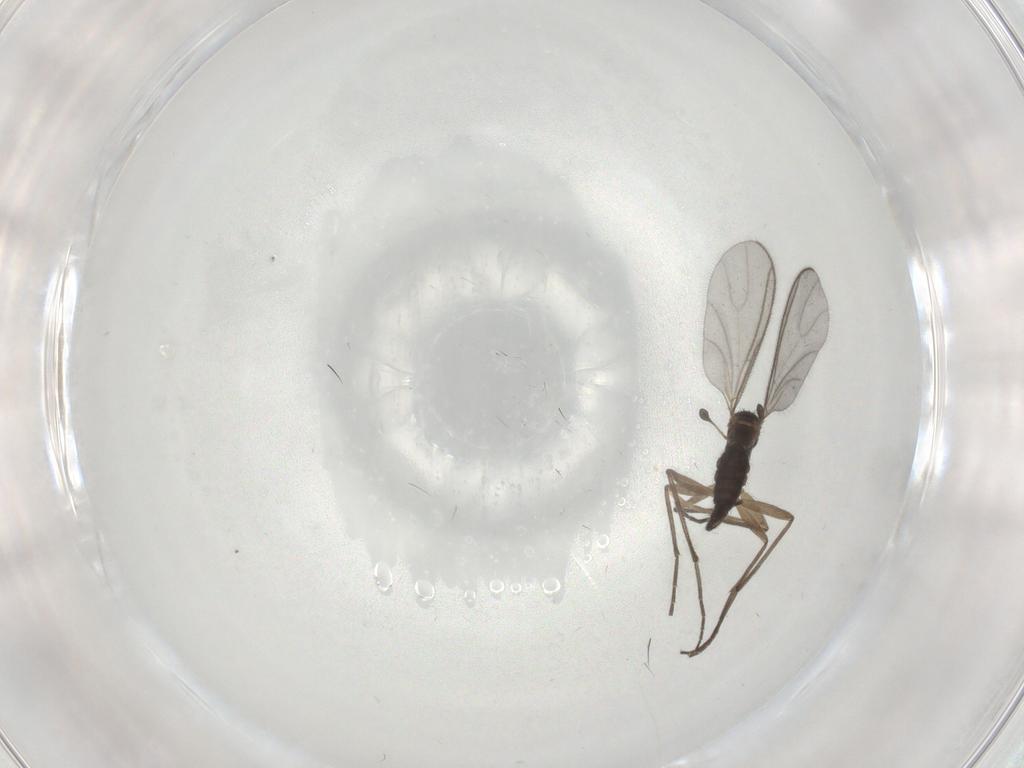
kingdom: Animalia
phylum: Arthropoda
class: Insecta
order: Diptera
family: Sciaridae
